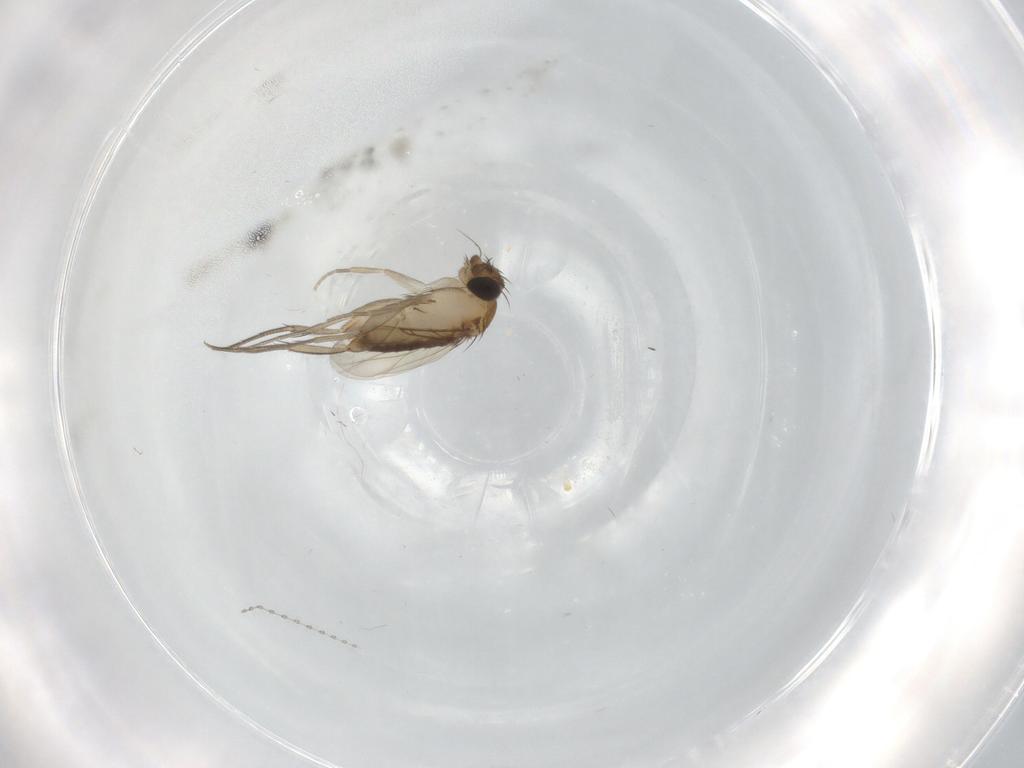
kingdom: Animalia
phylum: Arthropoda
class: Insecta
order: Diptera
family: Phoridae
